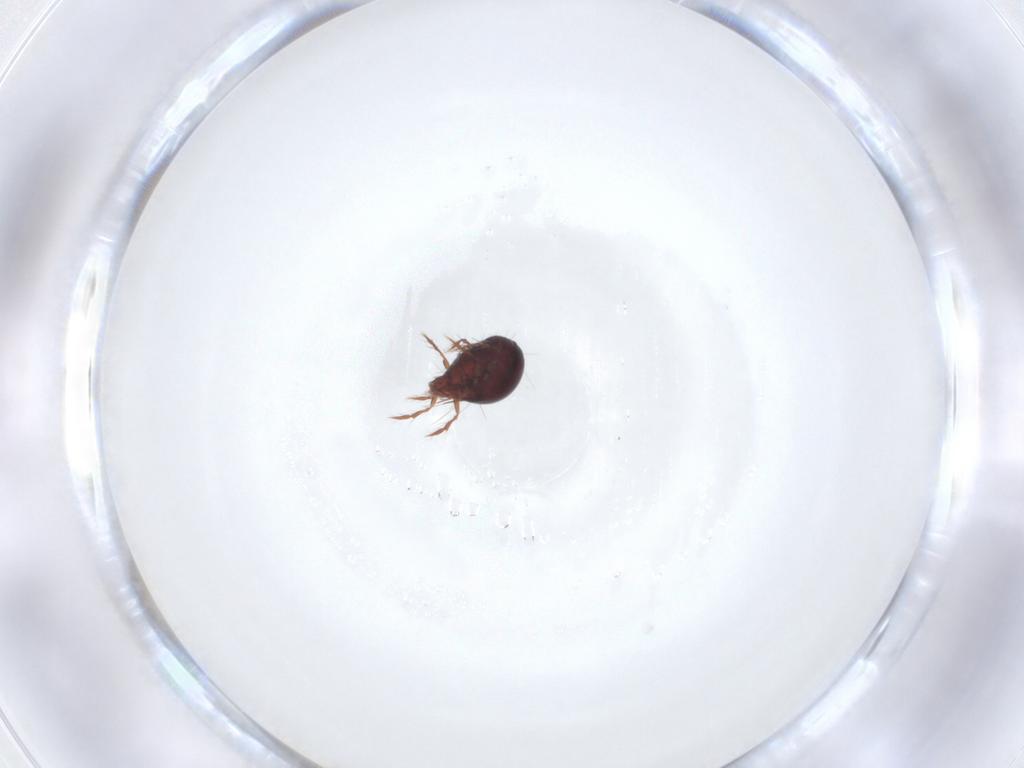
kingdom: Animalia
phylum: Arthropoda
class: Arachnida
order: Sarcoptiformes
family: Ceratoppiidae
